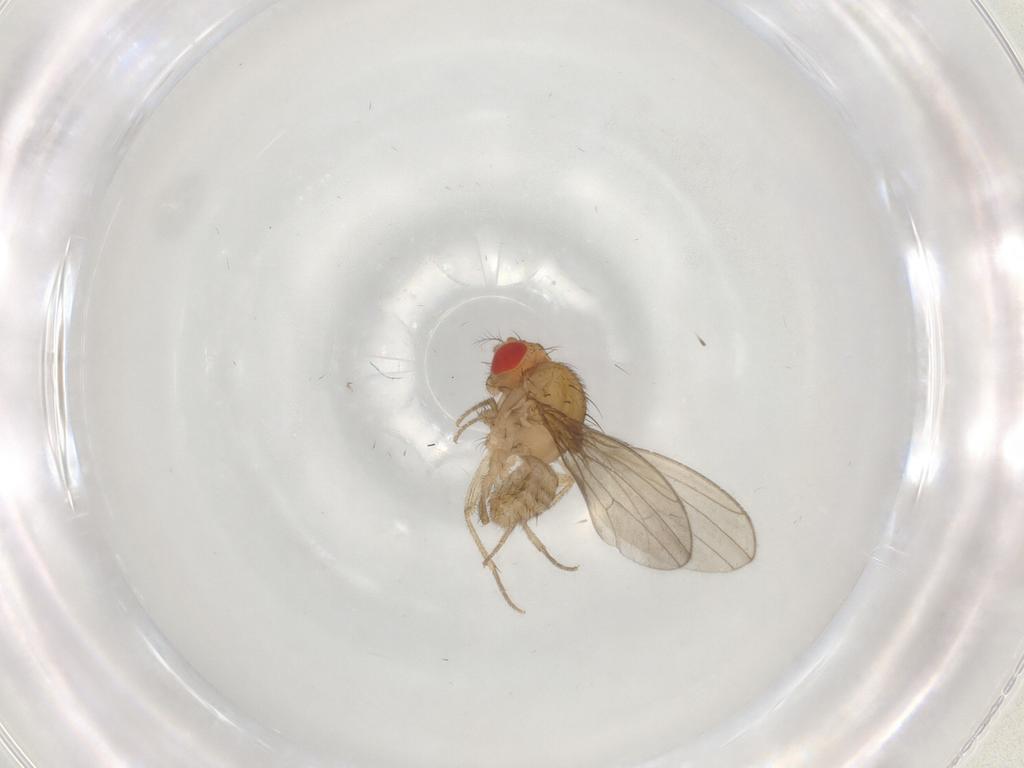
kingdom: Animalia
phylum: Arthropoda
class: Insecta
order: Diptera
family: Drosophilidae
